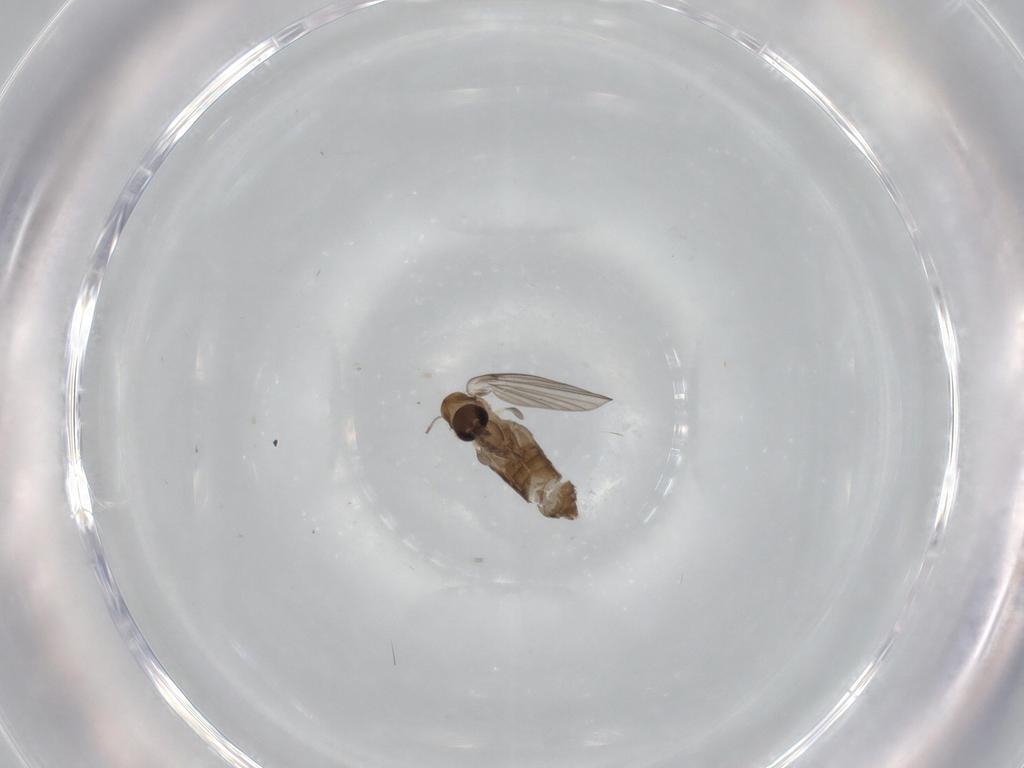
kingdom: Animalia
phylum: Arthropoda
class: Insecta
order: Diptera
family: Psychodidae
